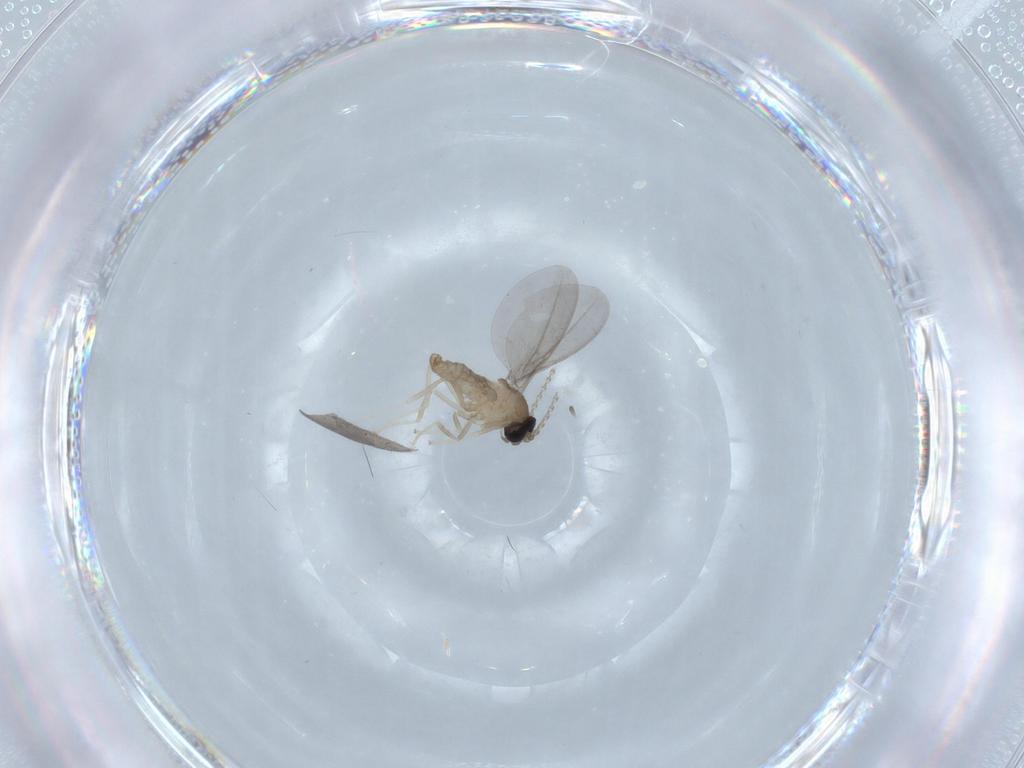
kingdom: Animalia
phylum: Arthropoda
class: Insecta
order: Diptera
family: Cecidomyiidae
